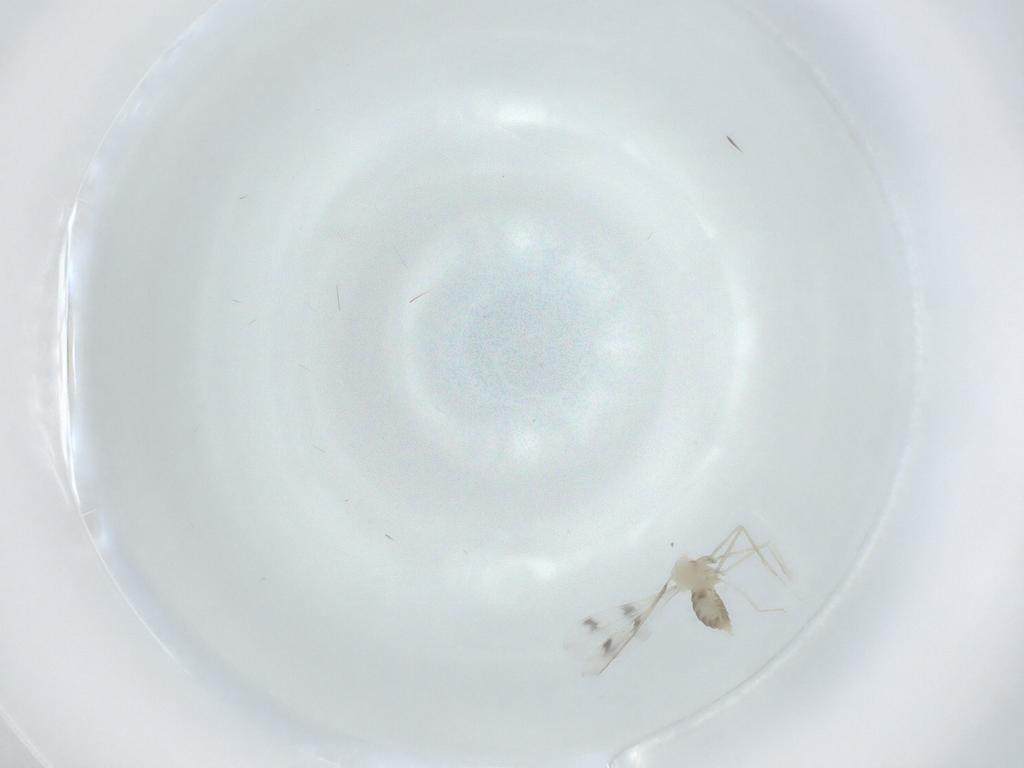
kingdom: Animalia
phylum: Arthropoda
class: Insecta
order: Diptera
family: Cecidomyiidae
